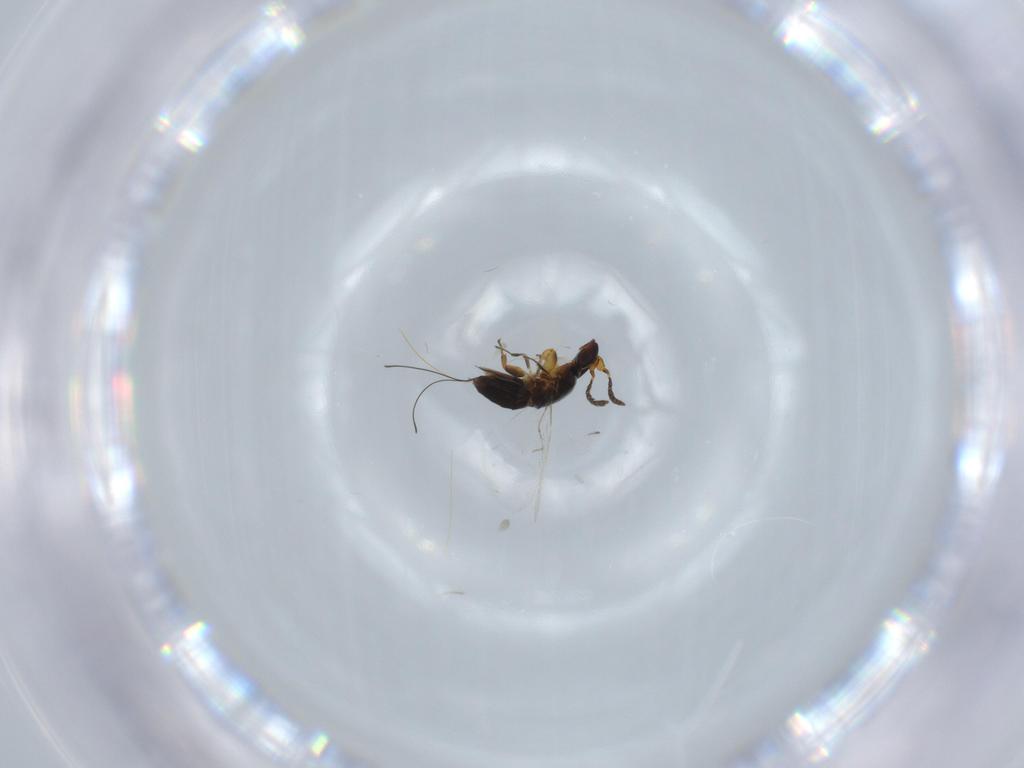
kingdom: Animalia
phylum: Arthropoda
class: Insecta
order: Hymenoptera
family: Agaonidae
